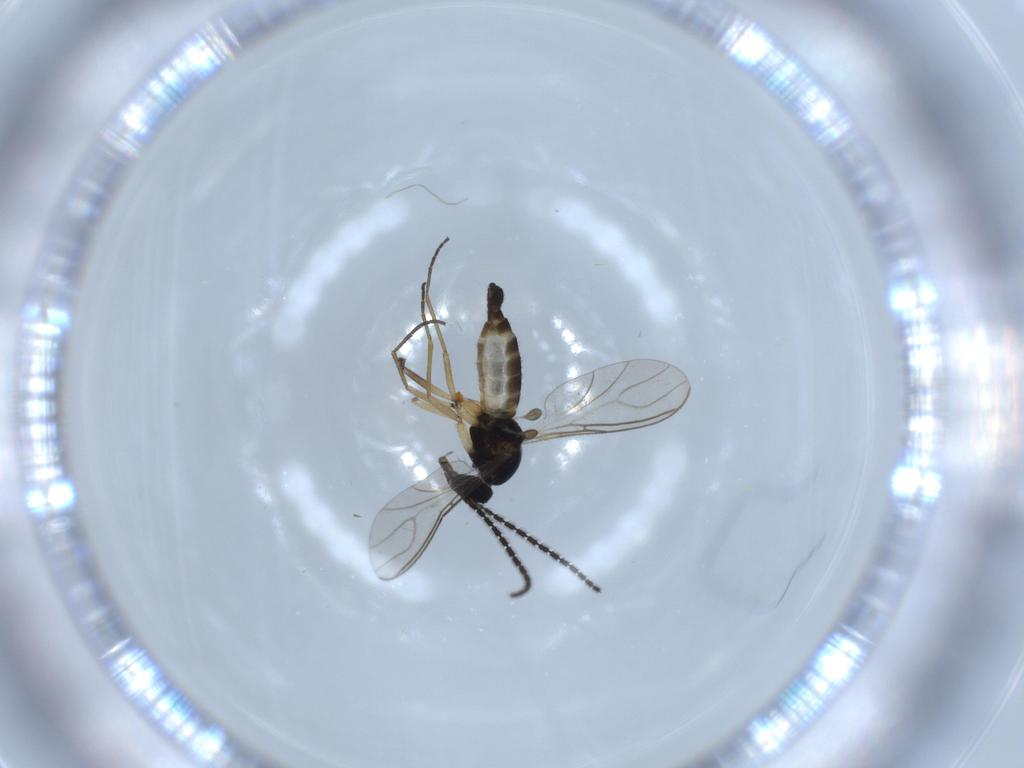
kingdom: Animalia
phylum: Arthropoda
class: Insecta
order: Diptera
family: Sciaridae
